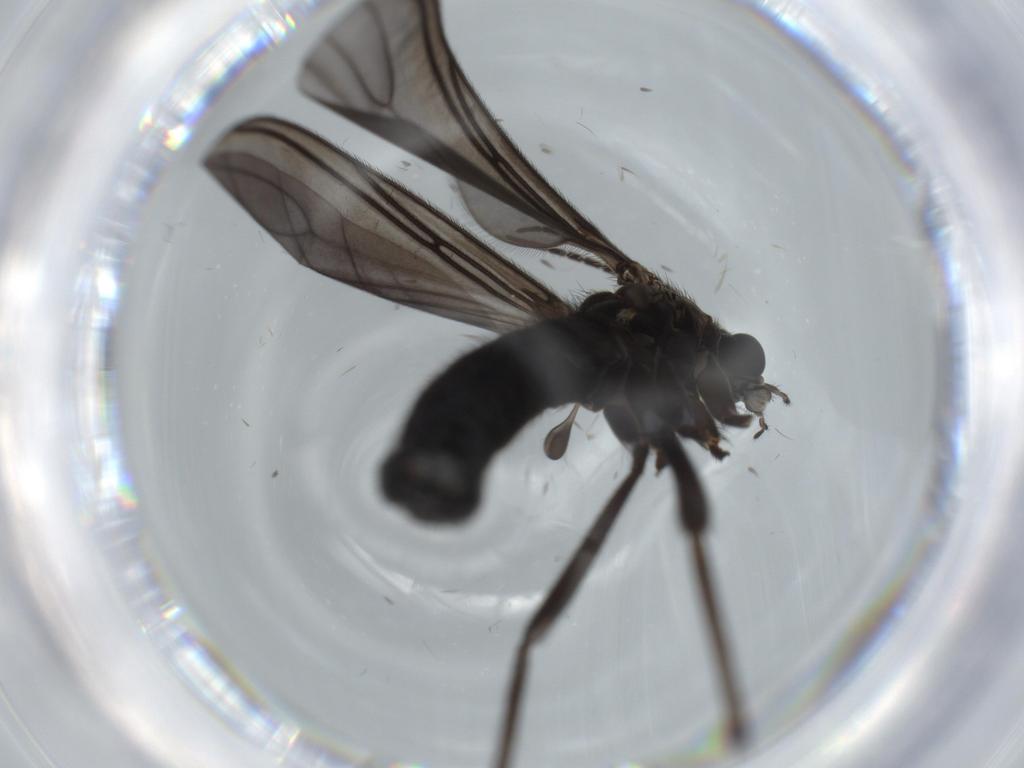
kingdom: Animalia
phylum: Arthropoda
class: Insecta
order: Diptera
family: Sciaridae
